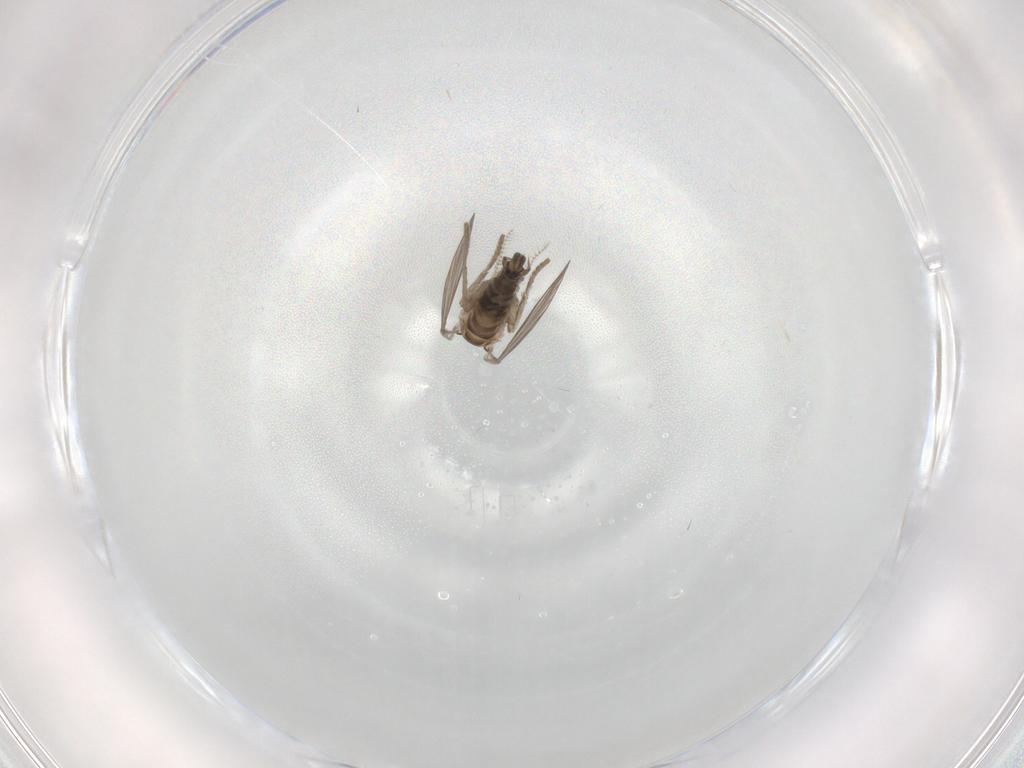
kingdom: Animalia
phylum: Arthropoda
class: Insecta
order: Diptera
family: Psychodidae
